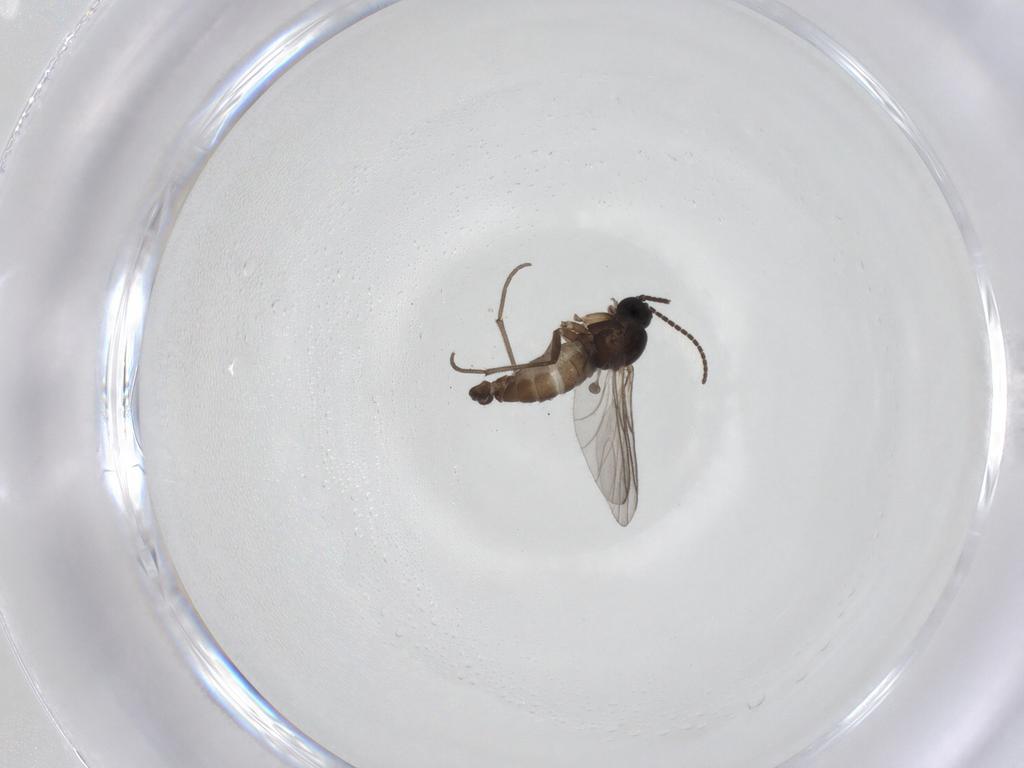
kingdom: Animalia
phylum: Arthropoda
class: Insecta
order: Diptera
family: Sciaridae
